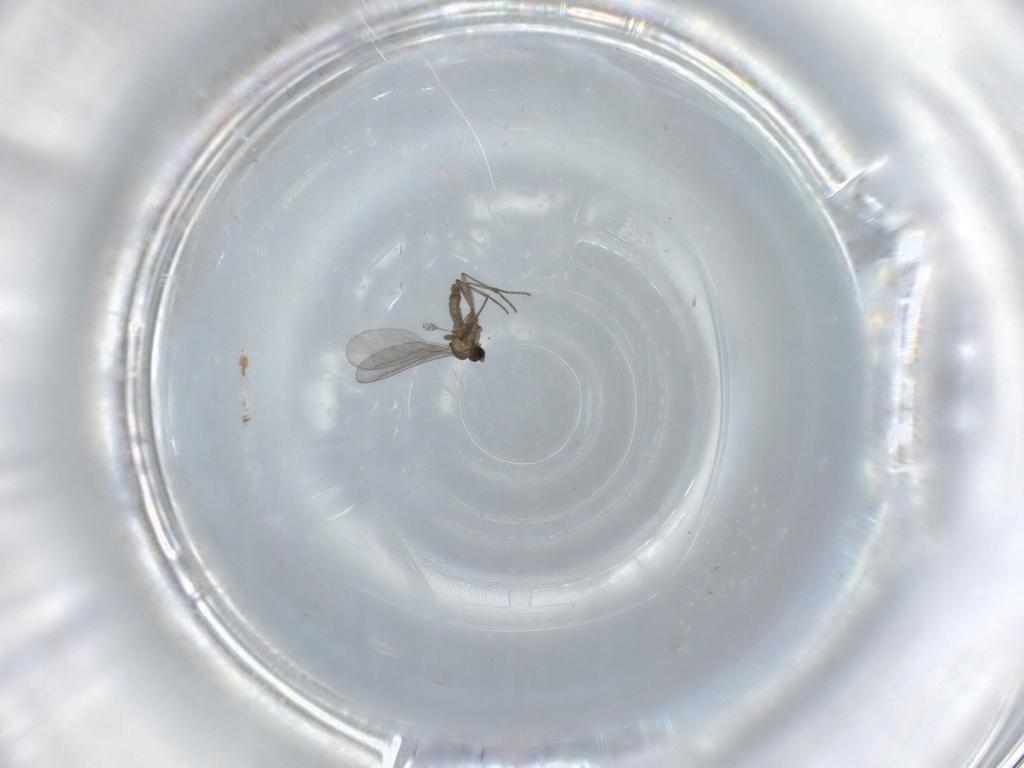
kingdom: Animalia
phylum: Arthropoda
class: Insecta
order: Diptera
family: Sciaridae
